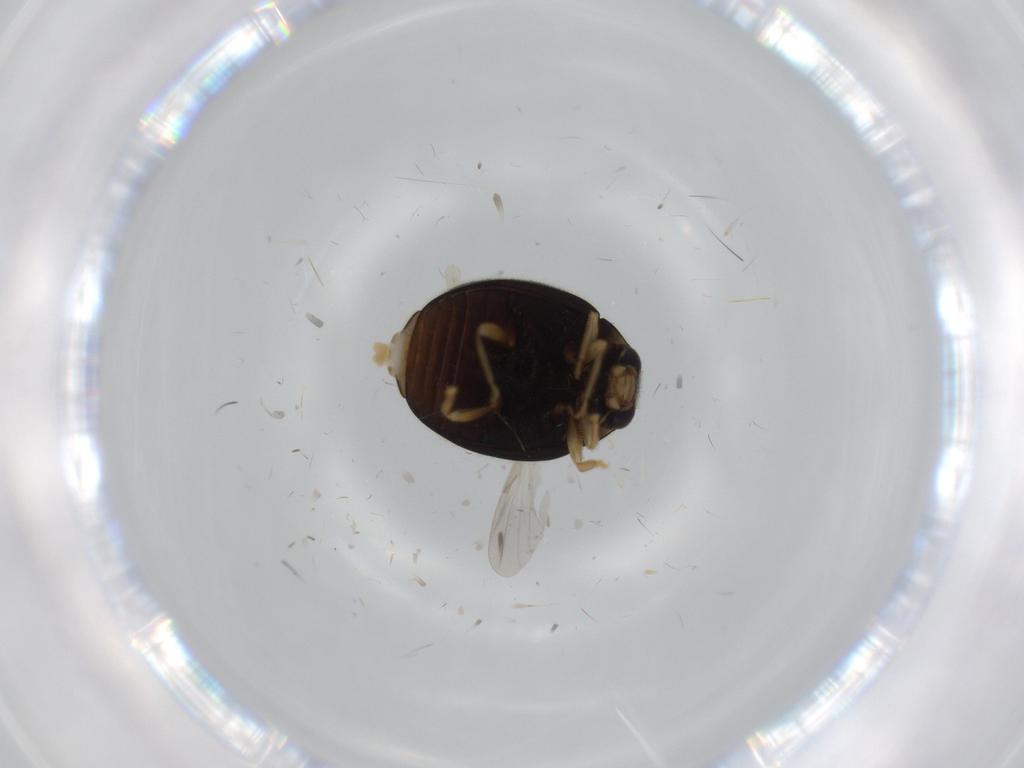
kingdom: Animalia
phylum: Arthropoda
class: Insecta
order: Coleoptera
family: Coccinellidae
